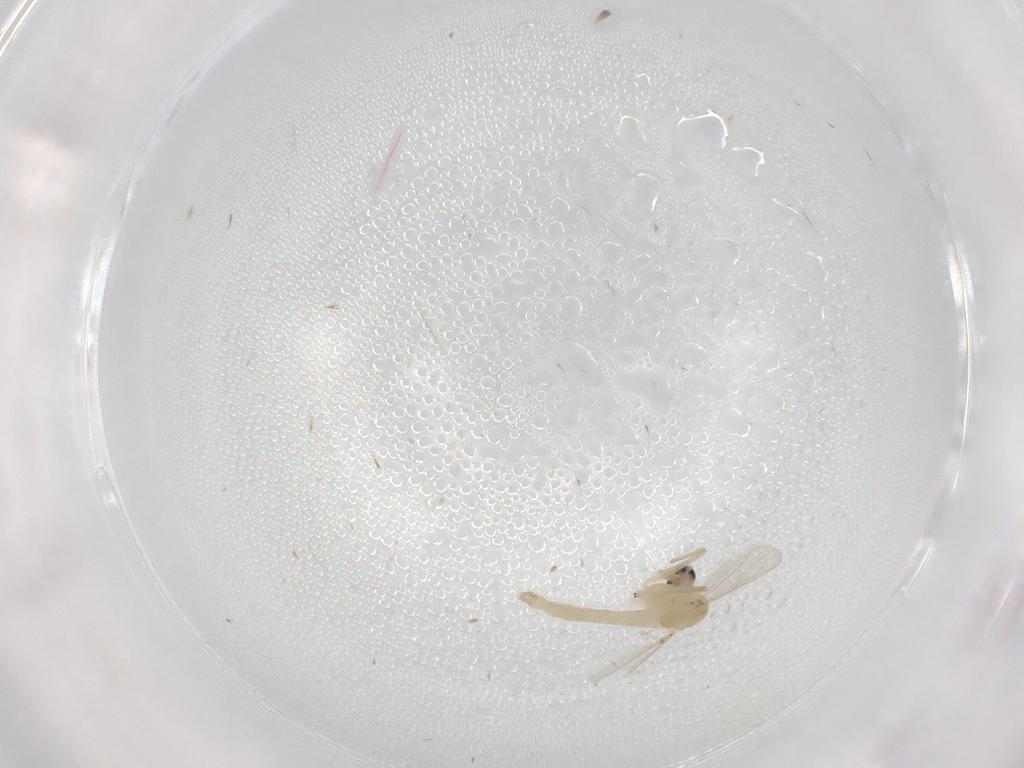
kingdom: Animalia
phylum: Arthropoda
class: Insecta
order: Diptera
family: Chironomidae
